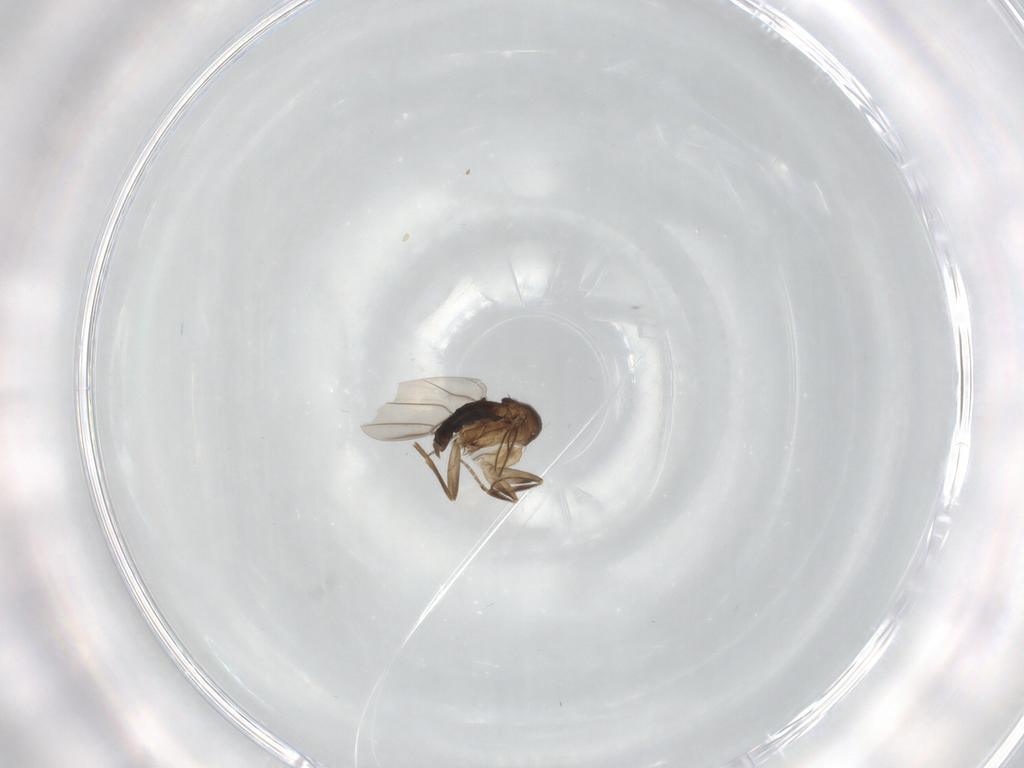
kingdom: Animalia
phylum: Arthropoda
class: Insecta
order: Diptera
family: Phoridae
